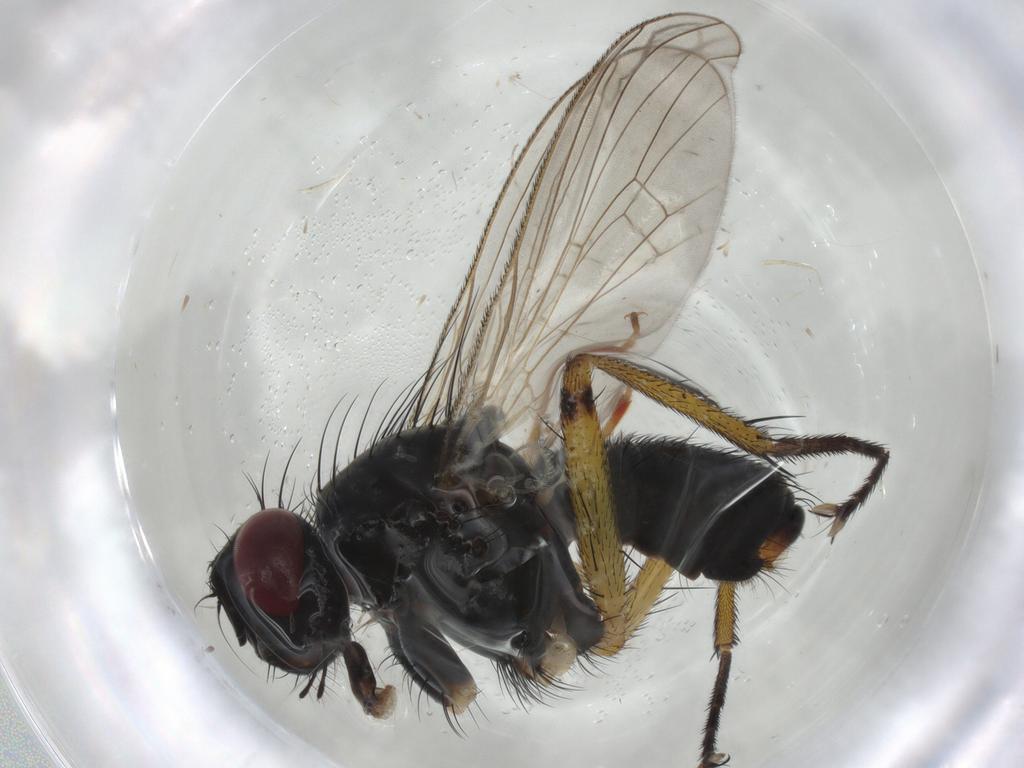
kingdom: Animalia
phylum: Arthropoda
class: Insecta
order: Diptera
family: Muscidae
